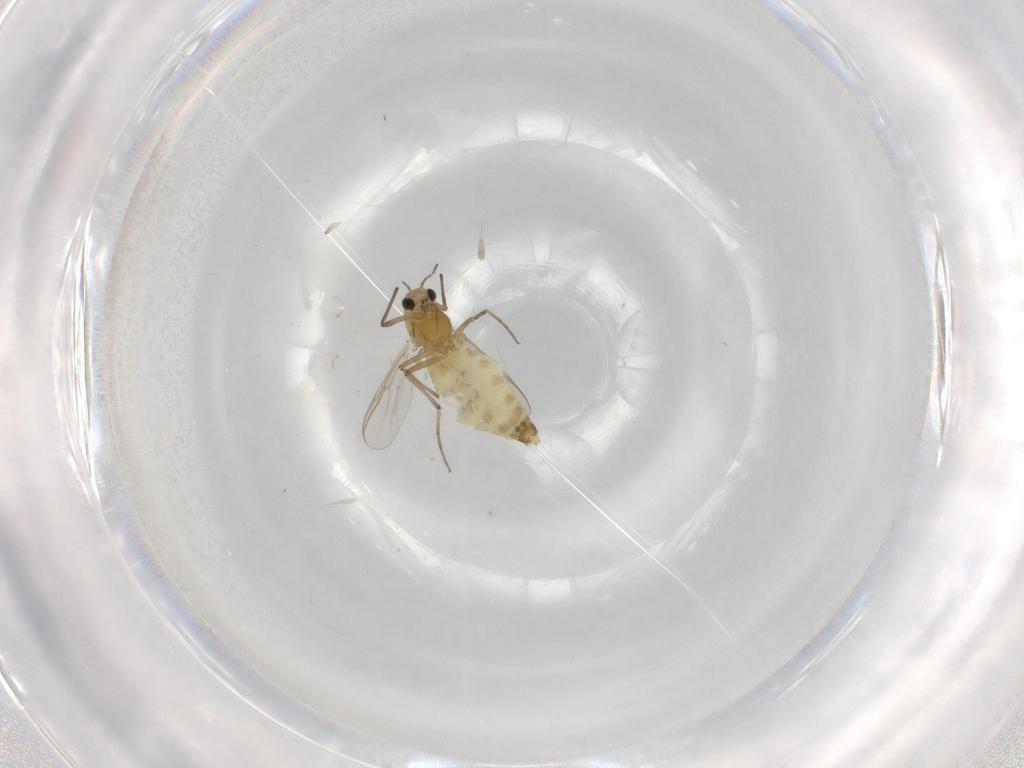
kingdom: Animalia
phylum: Arthropoda
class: Insecta
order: Diptera
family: Chironomidae
